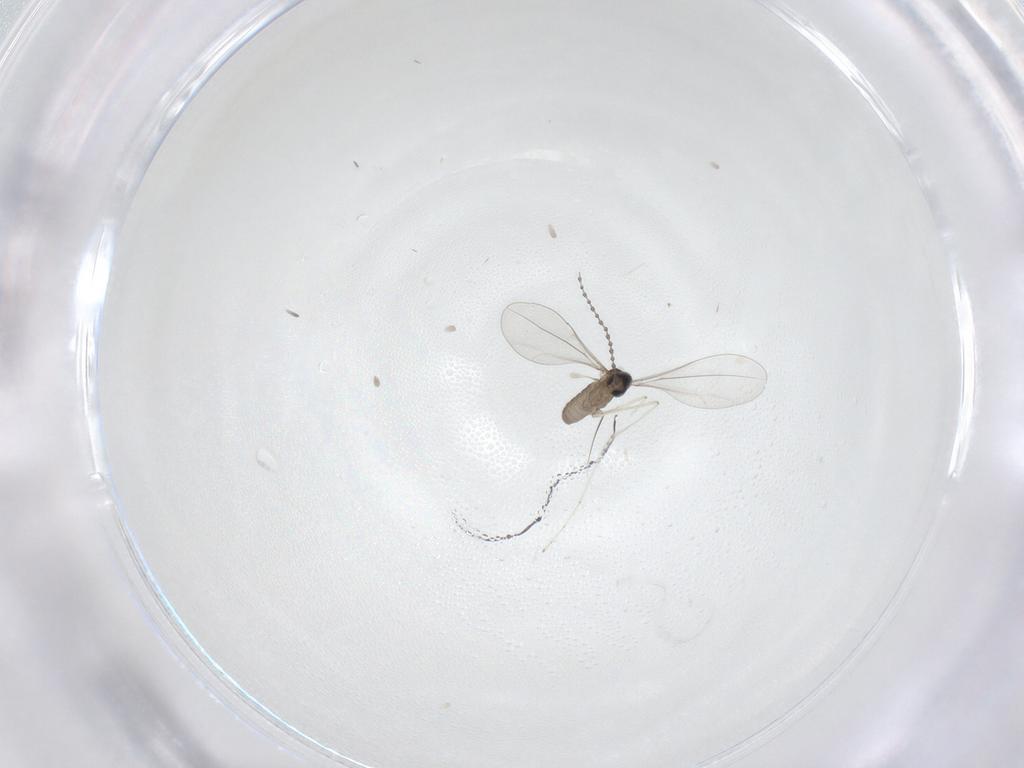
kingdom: Animalia
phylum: Arthropoda
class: Insecta
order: Diptera
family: Cecidomyiidae
